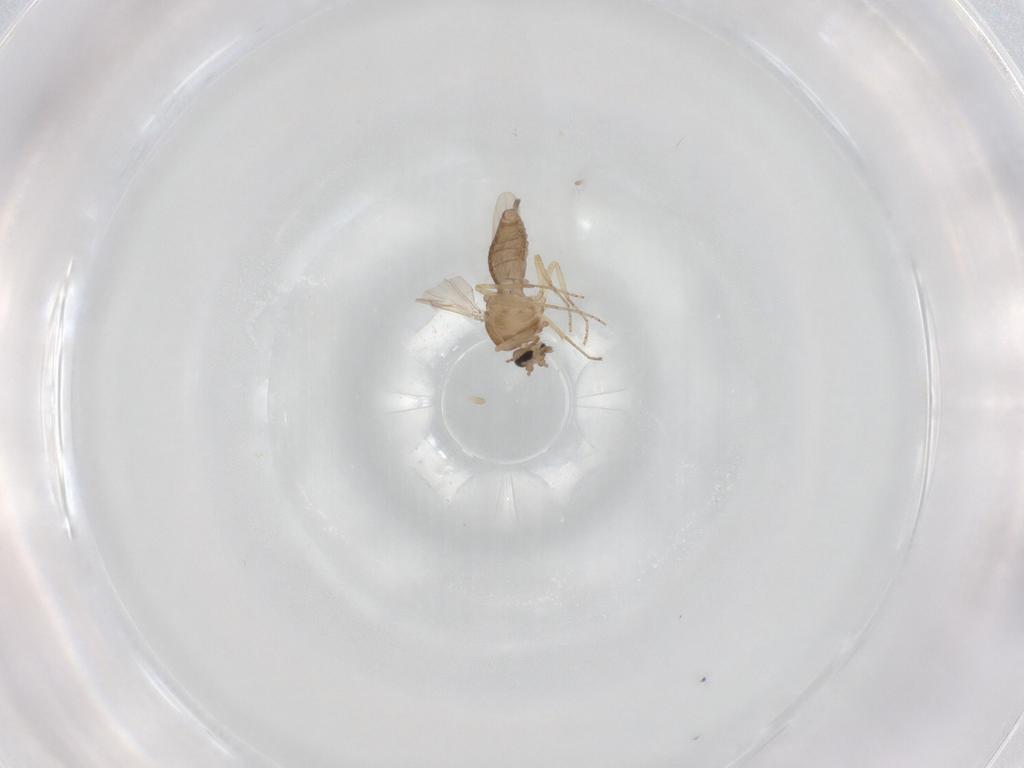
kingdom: Animalia
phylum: Arthropoda
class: Insecta
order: Diptera
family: Ceratopogonidae
